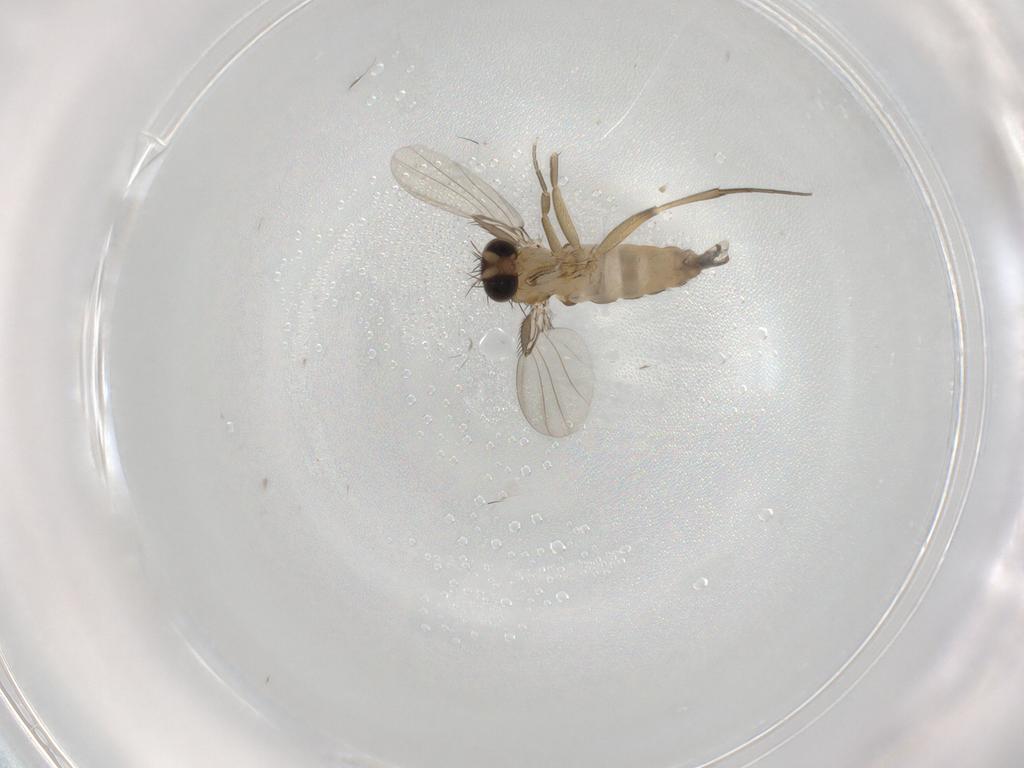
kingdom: Animalia
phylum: Arthropoda
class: Insecta
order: Diptera
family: Phoridae
